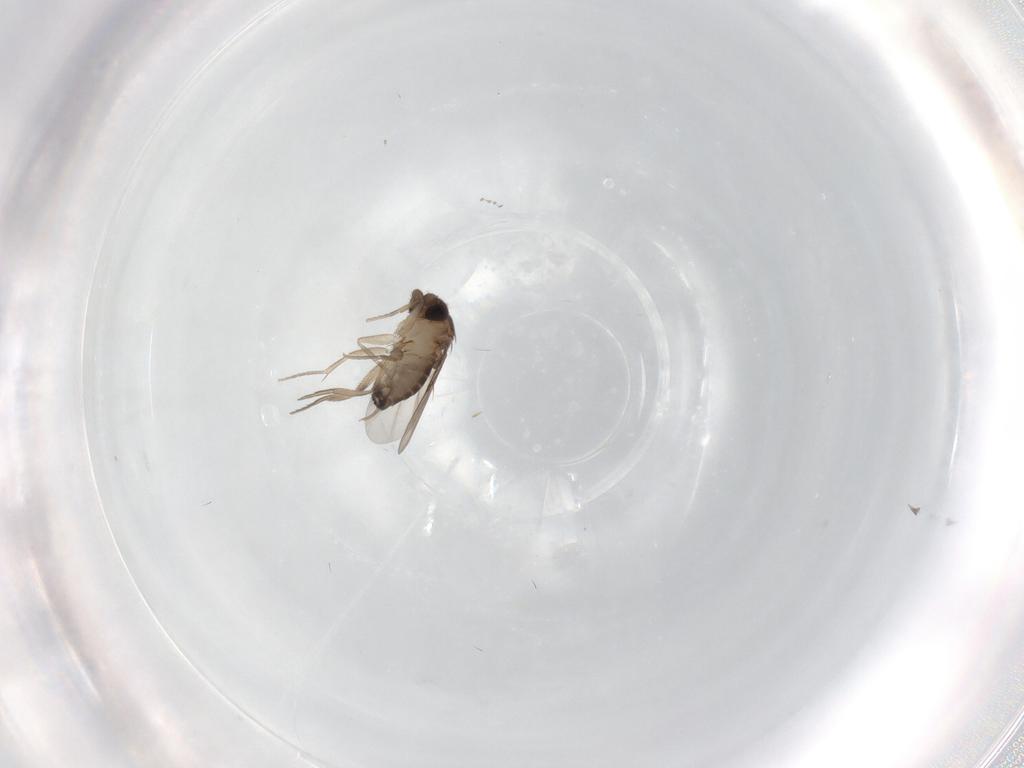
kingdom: Animalia
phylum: Arthropoda
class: Insecta
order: Diptera
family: Phoridae
